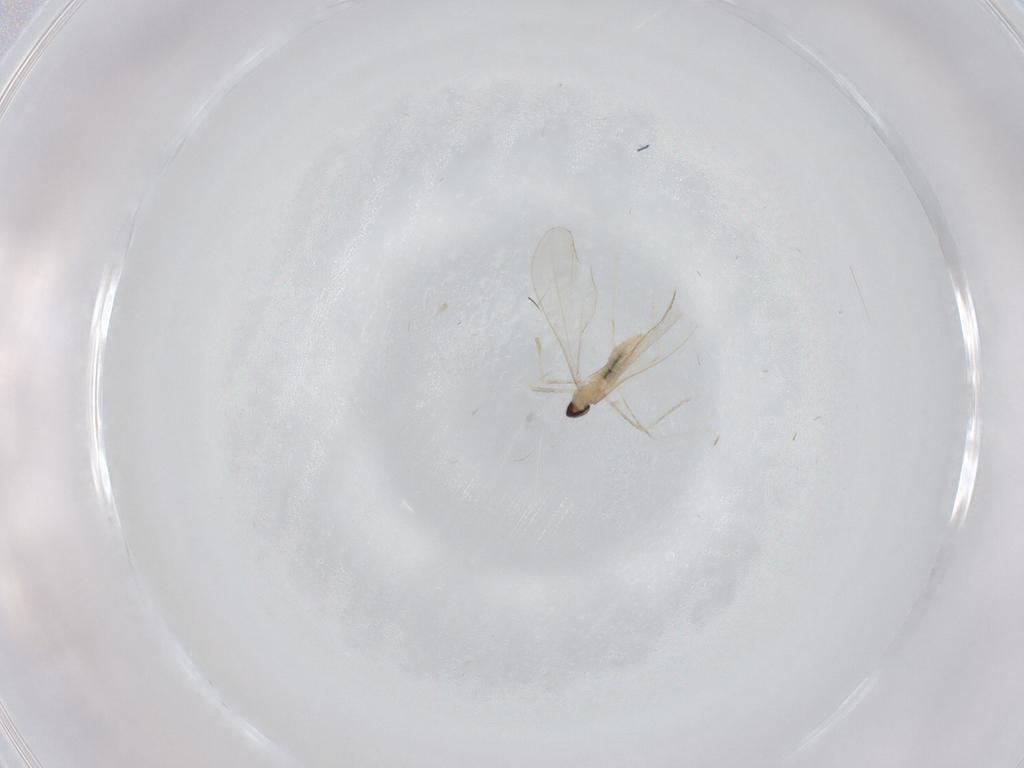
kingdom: Animalia
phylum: Arthropoda
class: Insecta
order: Diptera
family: Cecidomyiidae
